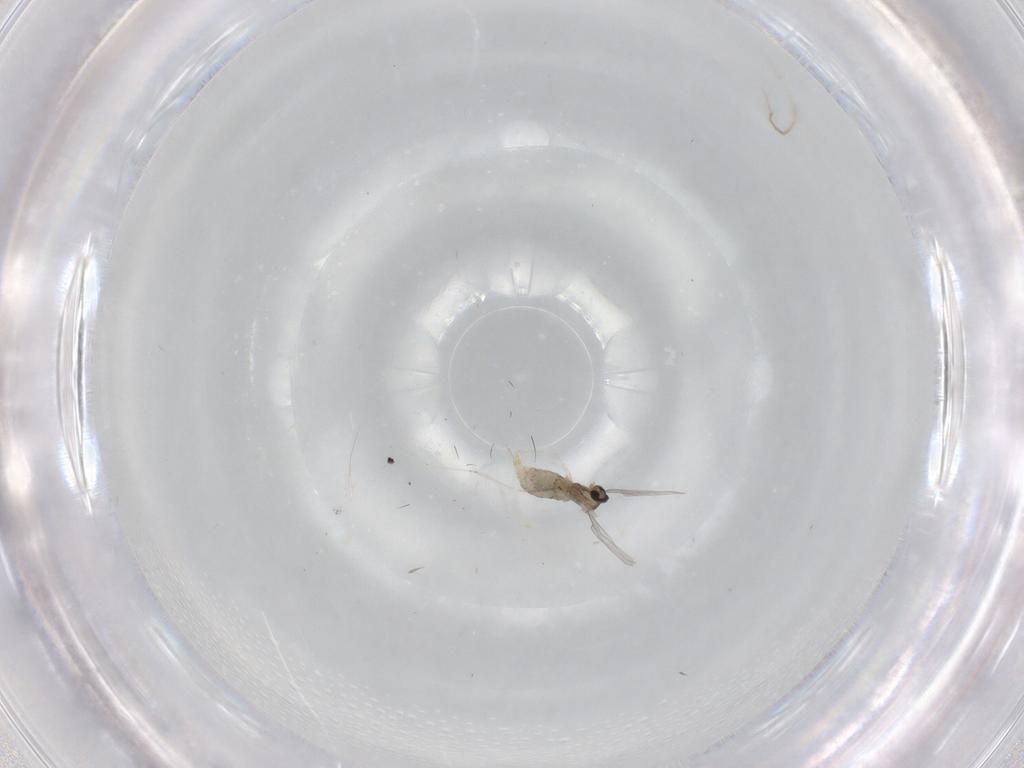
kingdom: Animalia
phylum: Arthropoda
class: Insecta
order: Diptera
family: Cecidomyiidae
